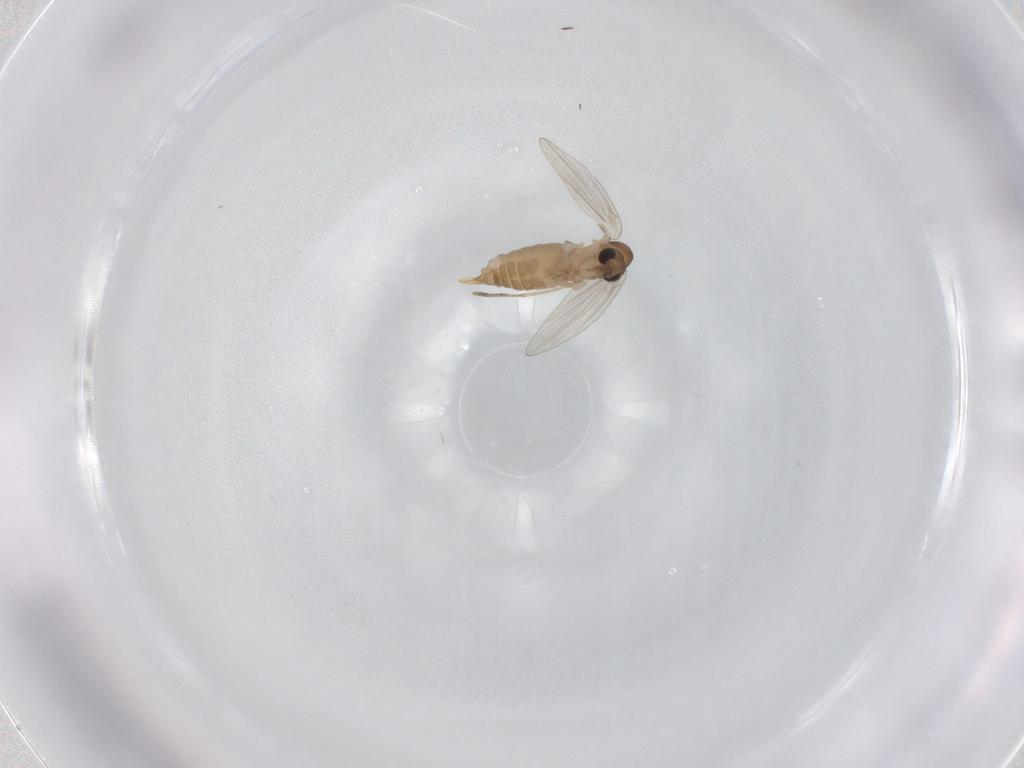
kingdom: Animalia
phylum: Arthropoda
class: Insecta
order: Diptera
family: Psychodidae
